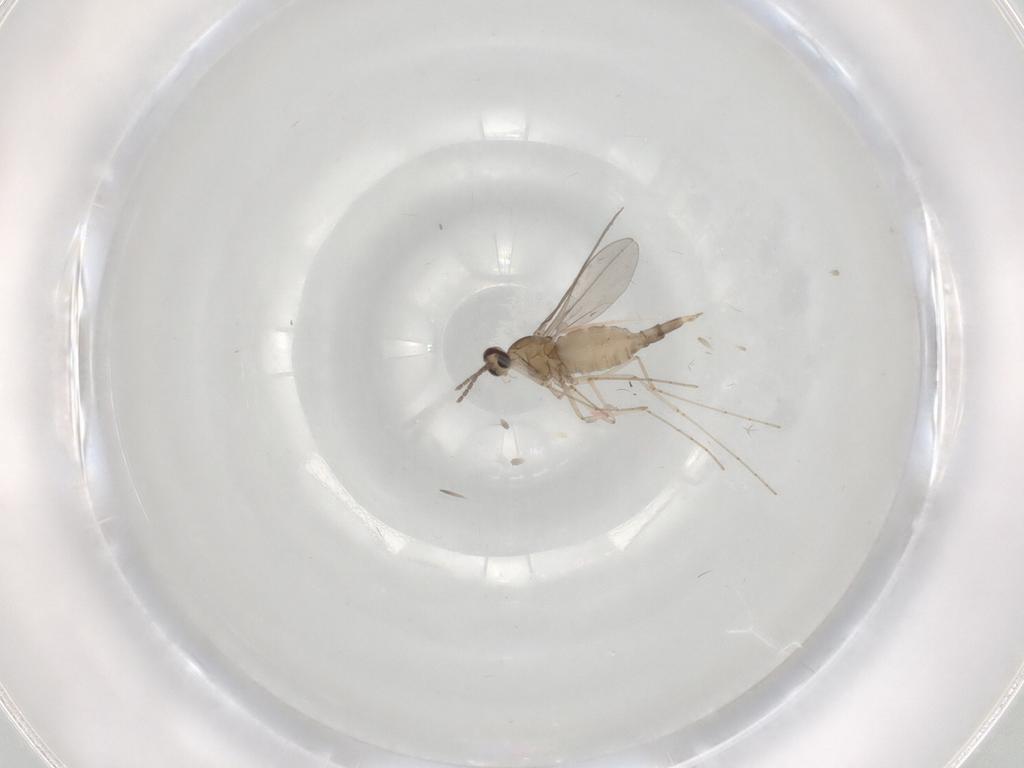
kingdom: Animalia
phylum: Arthropoda
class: Insecta
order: Diptera
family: Cecidomyiidae
